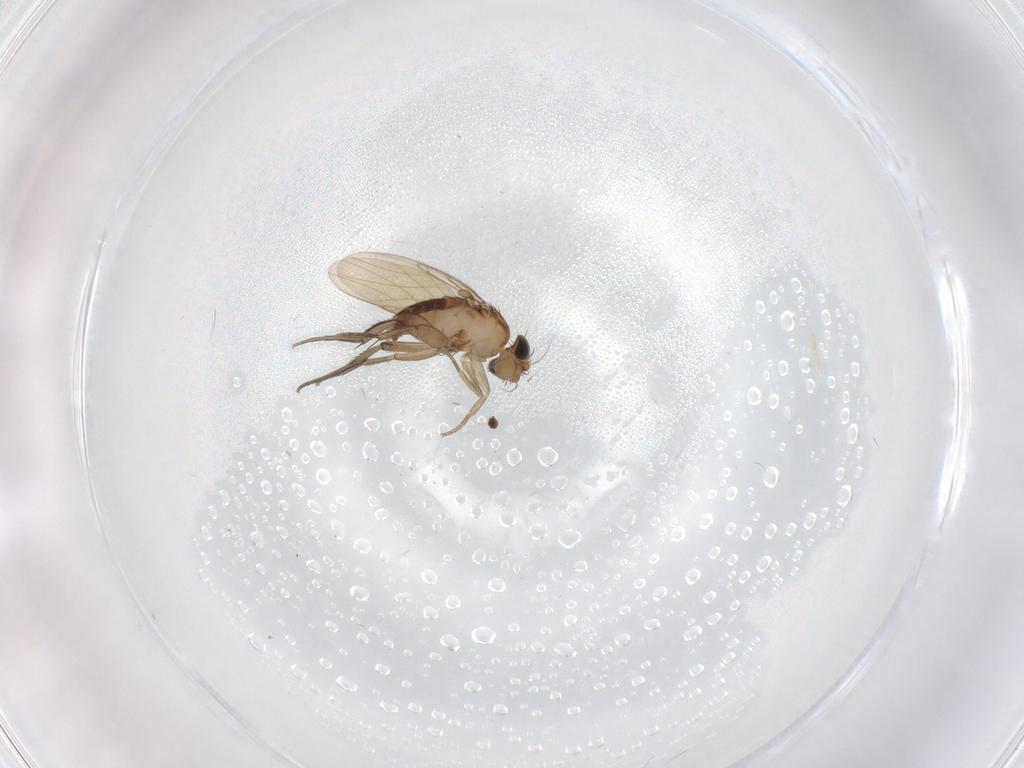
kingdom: Animalia
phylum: Arthropoda
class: Insecta
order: Diptera
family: Phoridae
